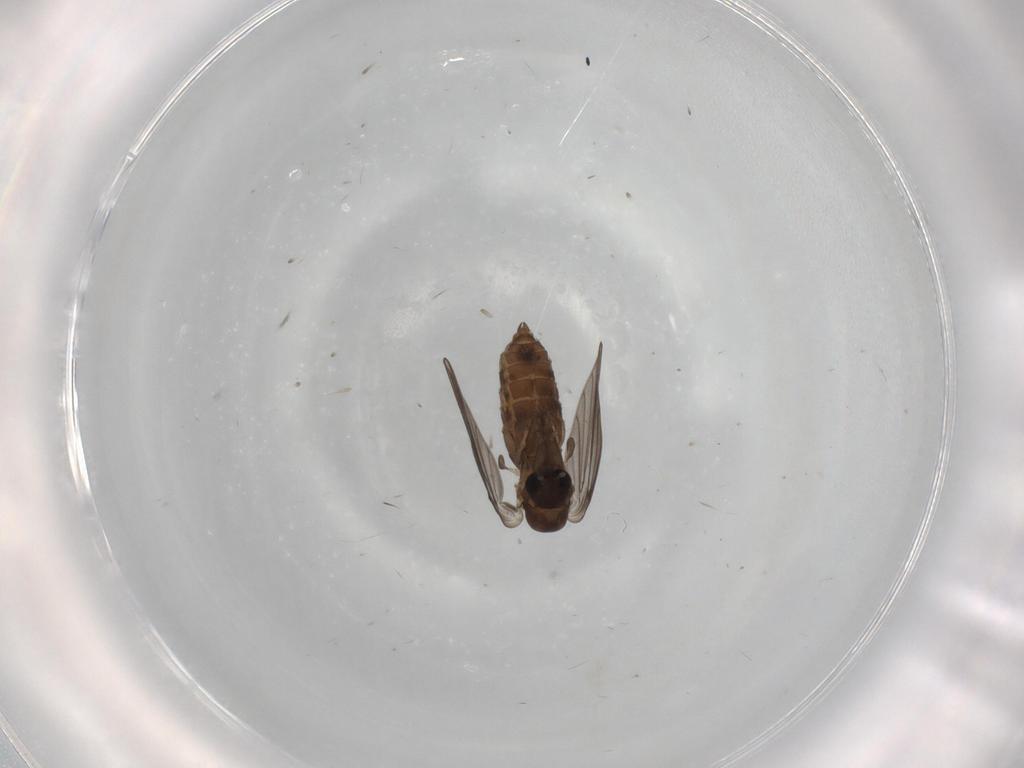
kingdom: Animalia
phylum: Arthropoda
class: Insecta
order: Diptera
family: Psychodidae
